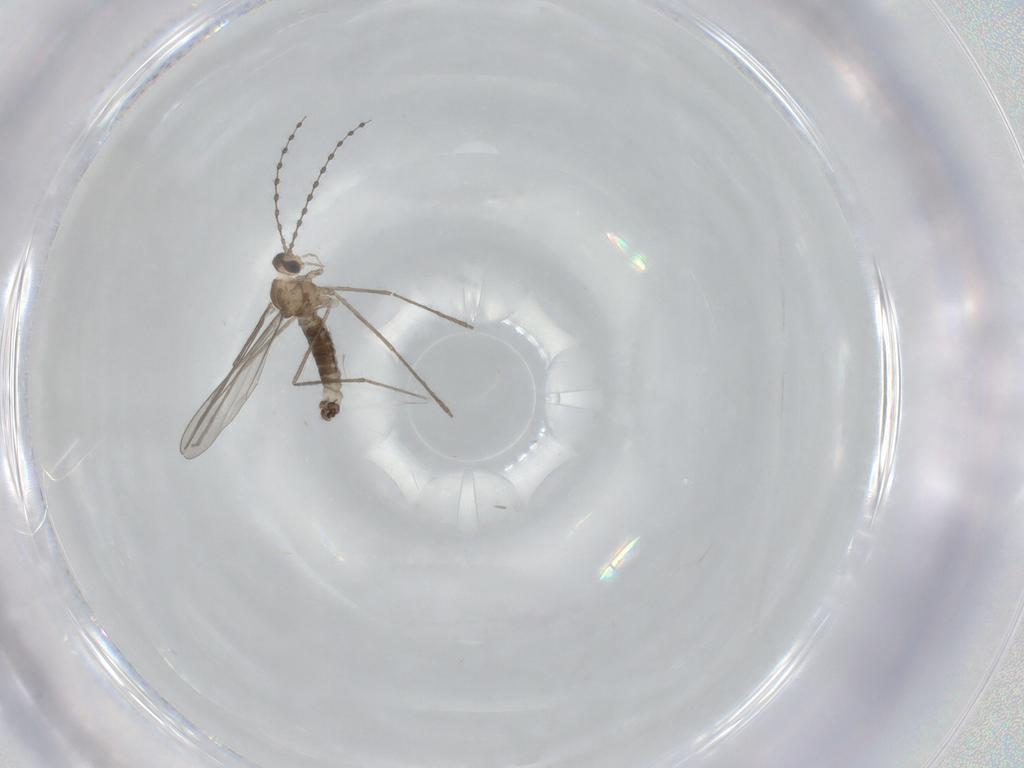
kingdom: Animalia
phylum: Arthropoda
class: Insecta
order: Diptera
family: Cecidomyiidae
